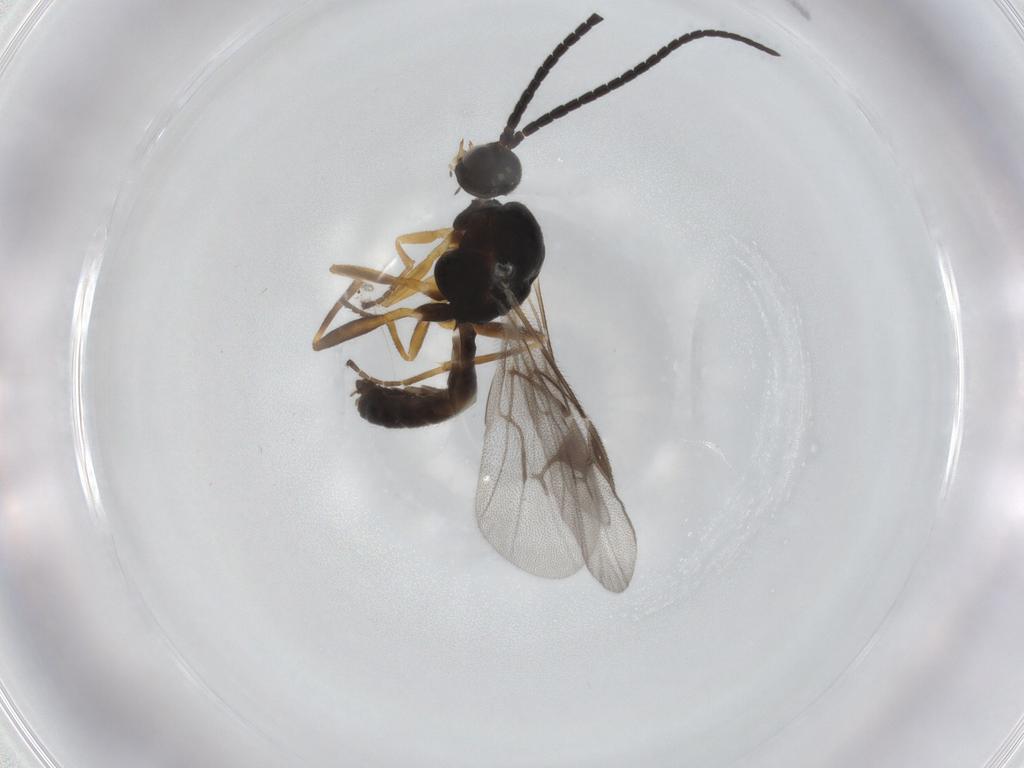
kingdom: Animalia
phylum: Arthropoda
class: Insecta
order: Hymenoptera
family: Braconidae
